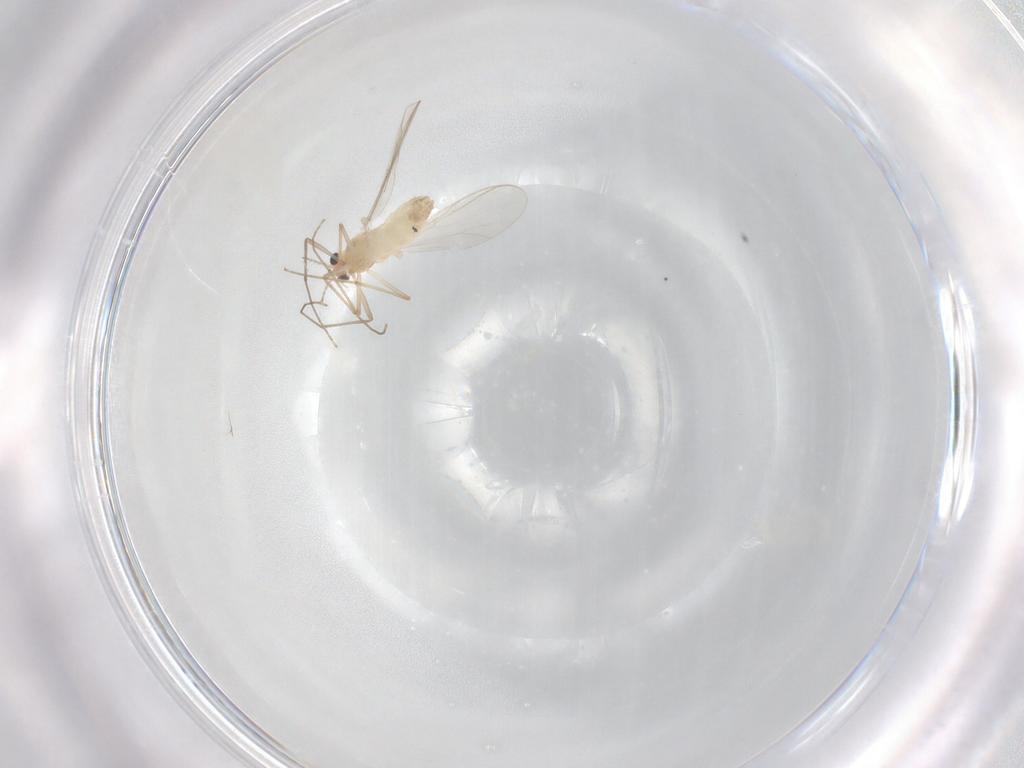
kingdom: Animalia
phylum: Arthropoda
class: Insecta
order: Diptera
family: Chironomidae
